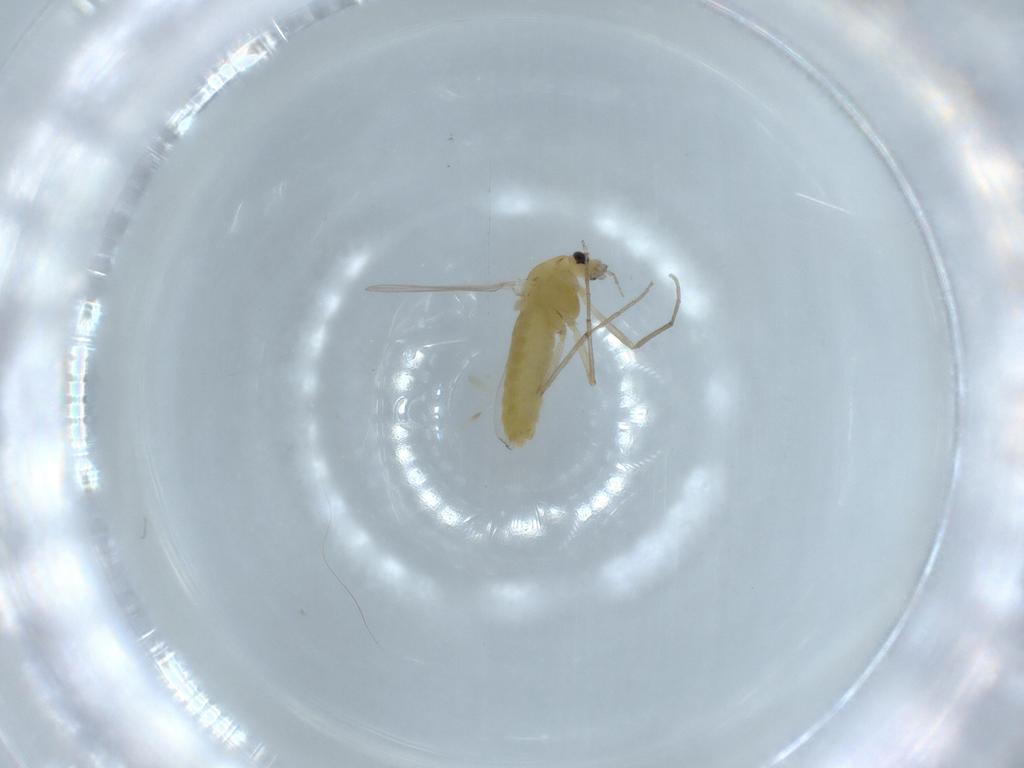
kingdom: Animalia
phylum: Arthropoda
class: Insecta
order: Diptera
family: Chironomidae
